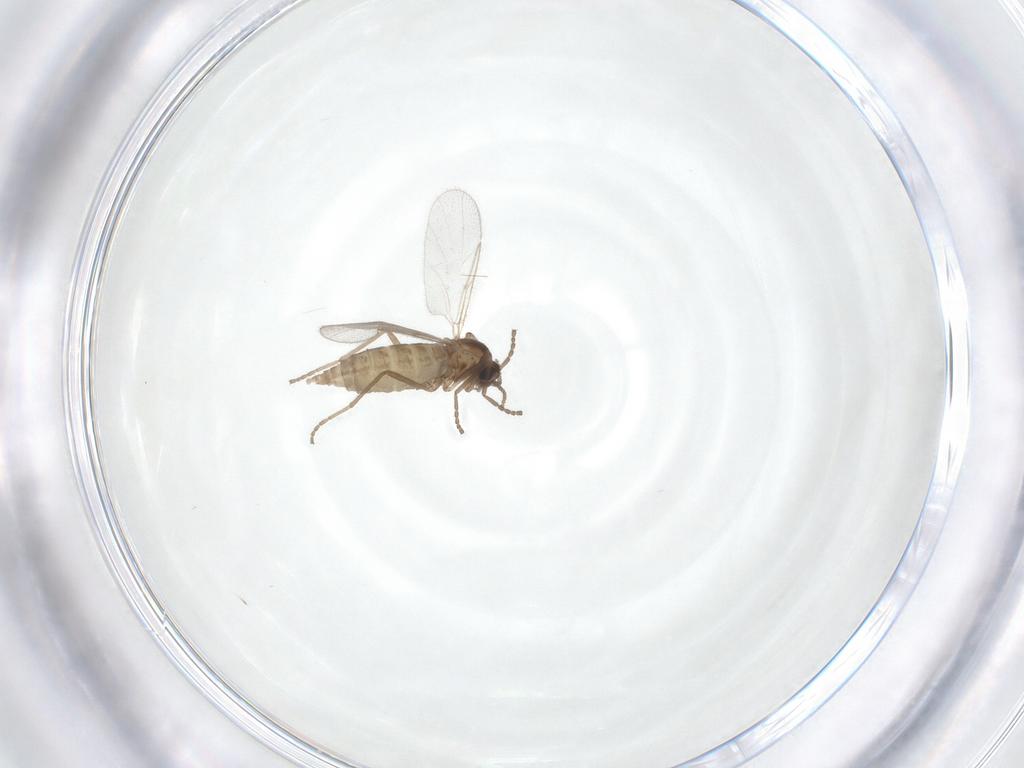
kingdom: Animalia
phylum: Arthropoda
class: Insecta
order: Diptera
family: Cecidomyiidae
